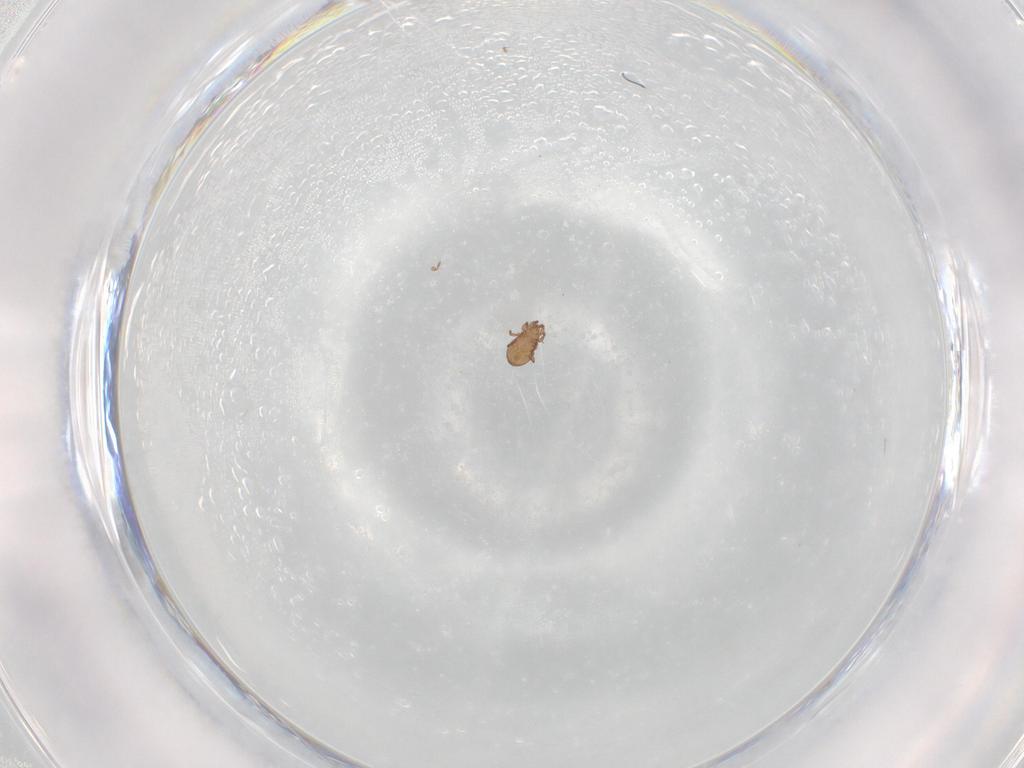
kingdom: Animalia
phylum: Arthropoda
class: Arachnida
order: Sarcoptiformes
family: Achipteriidae
